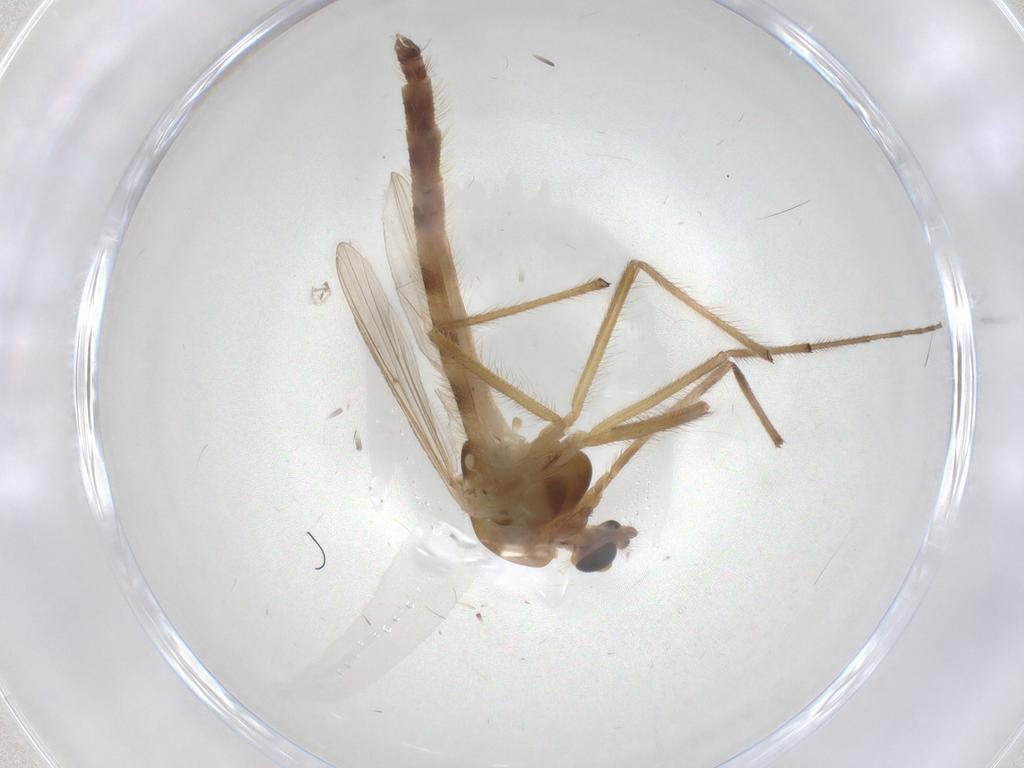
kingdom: Animalia
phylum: Arthropoda
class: Insecta
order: Diptera
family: Chironomidae
